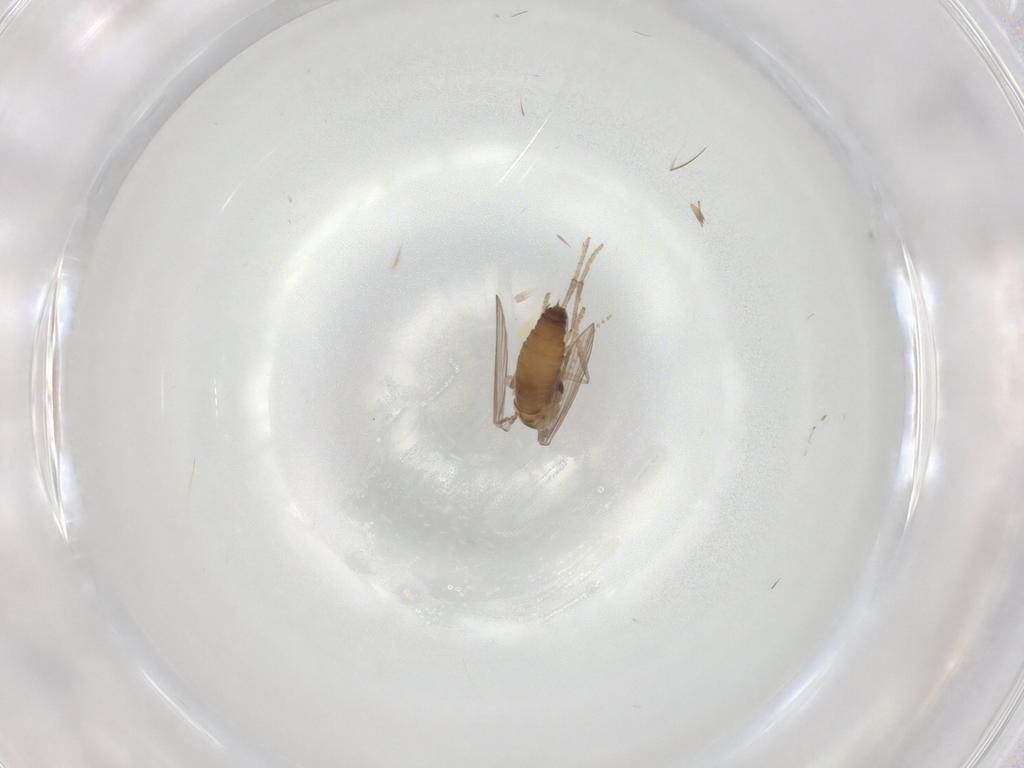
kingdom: Animalia
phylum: Arthropoda
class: Insecta
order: Diptera
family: Psychodidae
